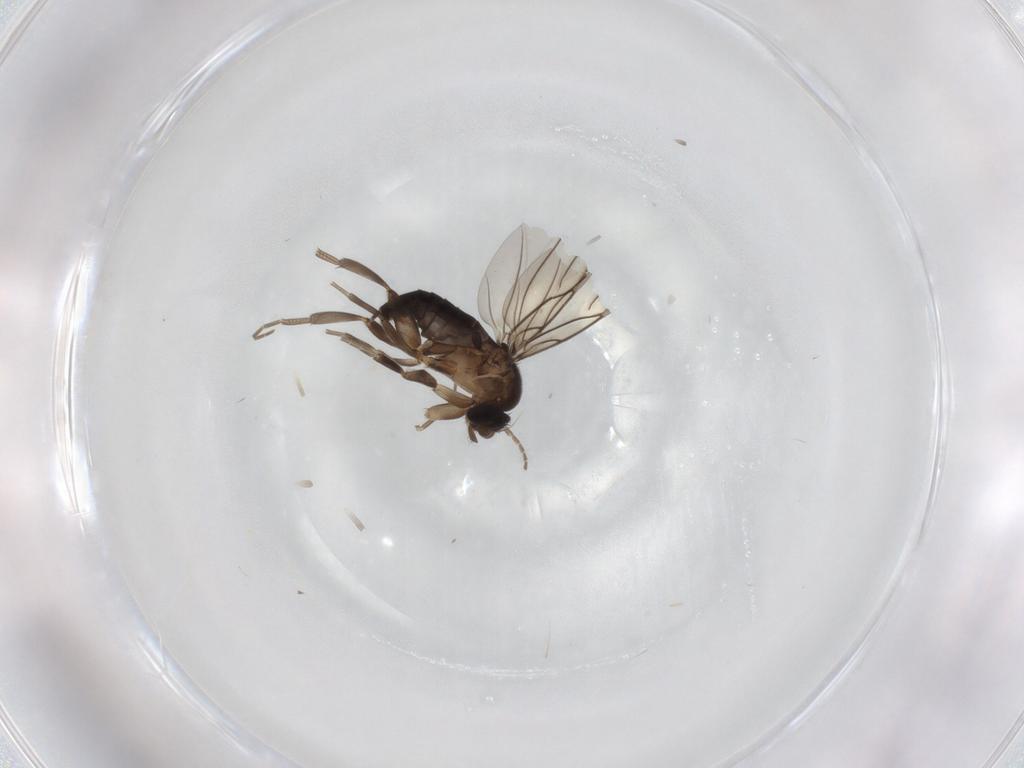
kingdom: Animalia
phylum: Arthropoda
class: Insecta
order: Diptera
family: Phoridae
